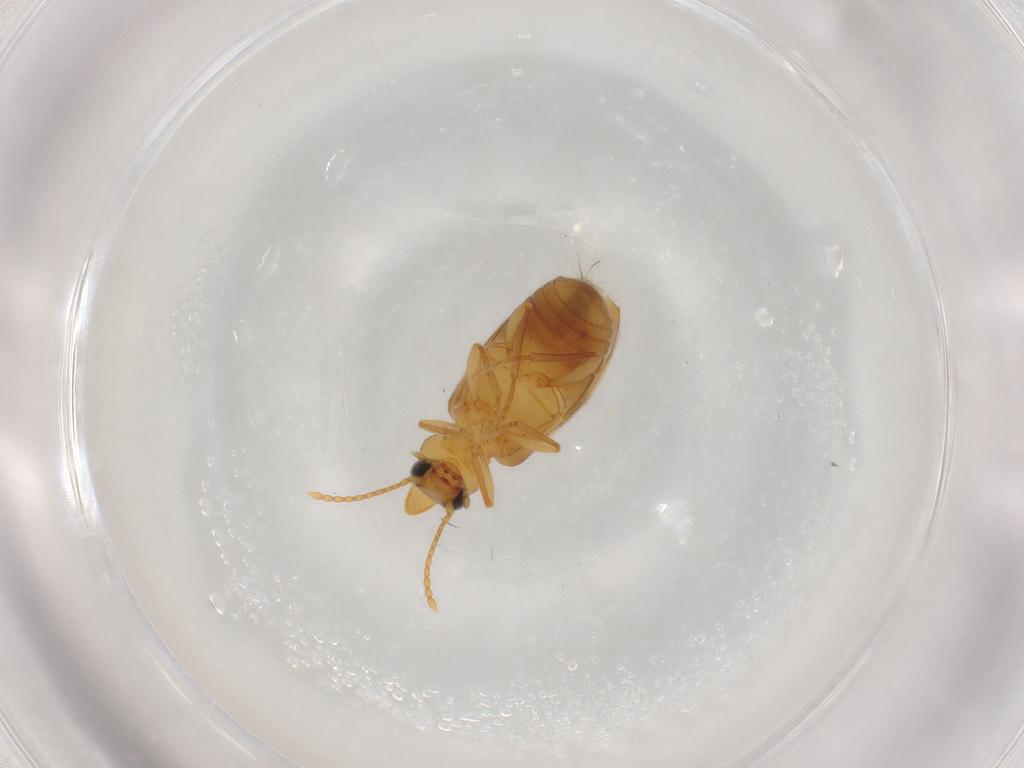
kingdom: Animalia
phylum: Arthropoda
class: Insecta
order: Coleoptera
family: Anthicidae
